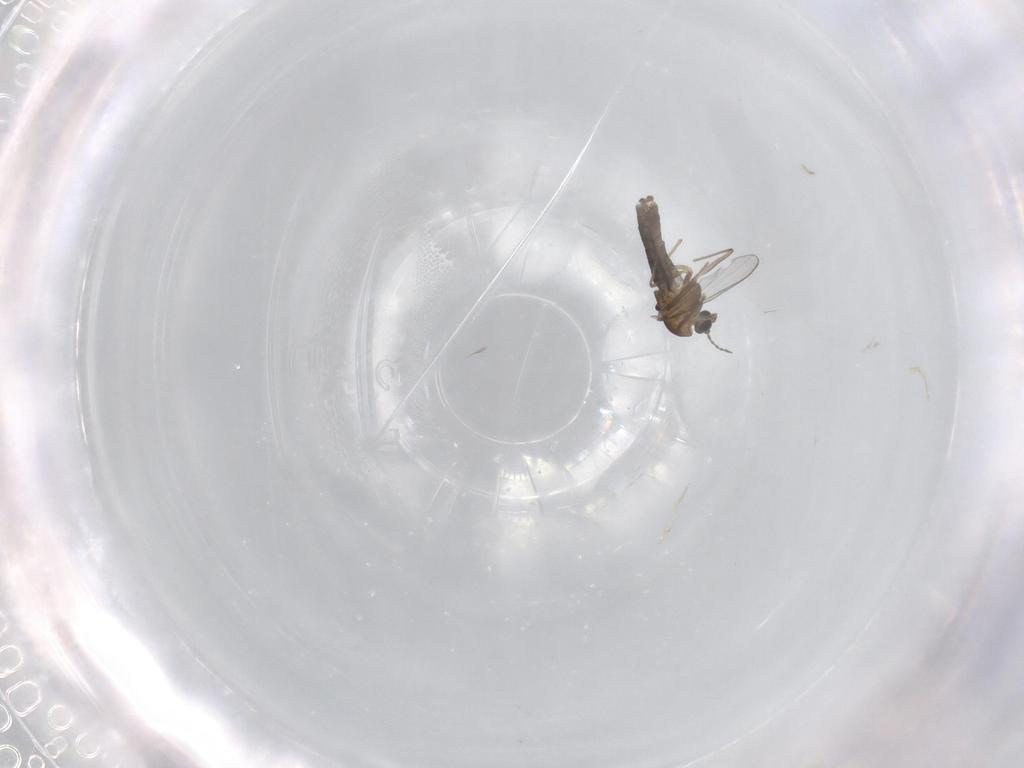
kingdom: Animalia
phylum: Arthropoda
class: Insecta
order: Diptera
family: Chironomidae
